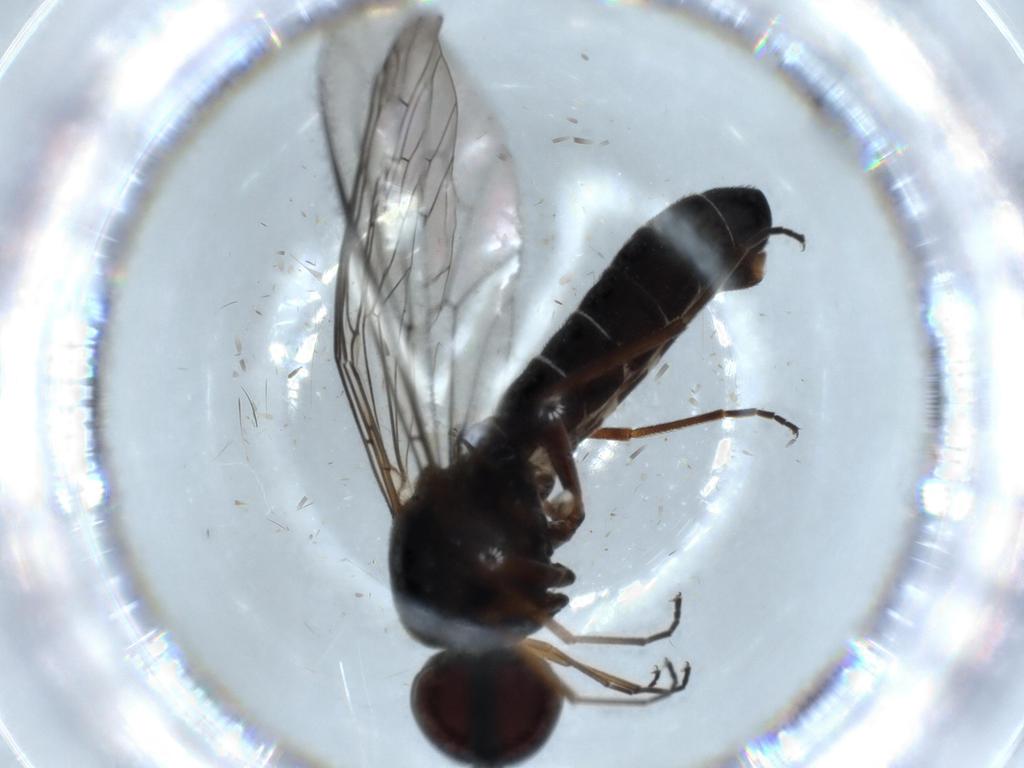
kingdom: Animalia
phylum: Arthropoda
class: Insecta
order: Diptera
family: Bombyliidae
